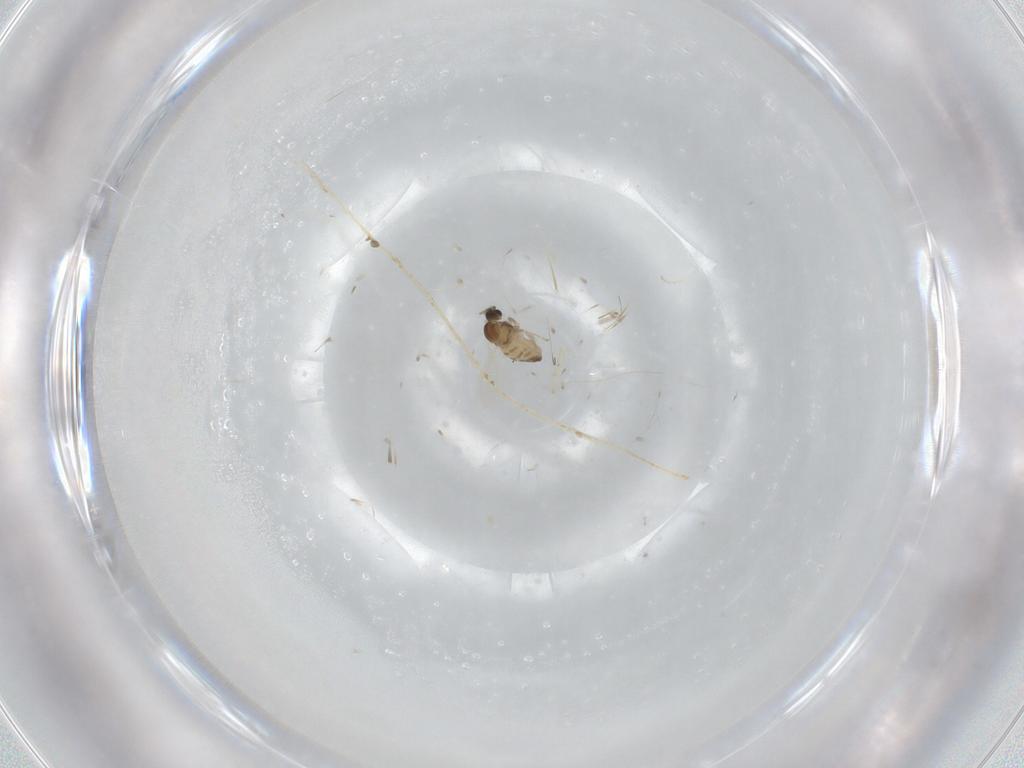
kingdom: Animalia
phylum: Arthropoda
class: Insecta
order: Diptera
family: Cecidomyiidae
